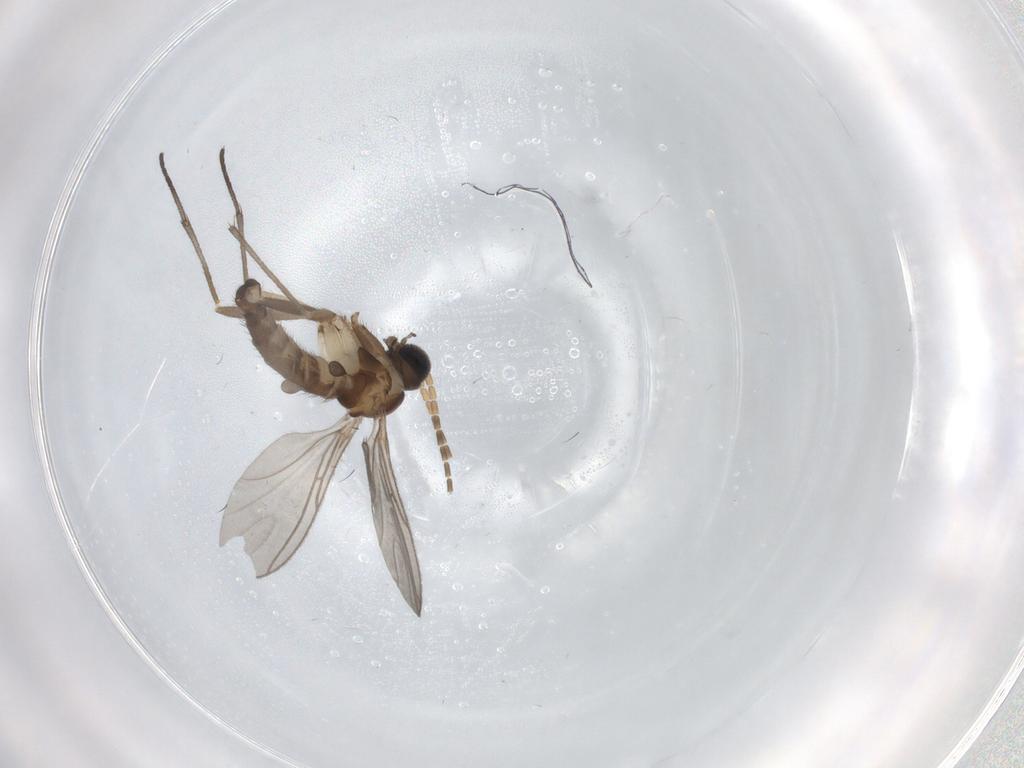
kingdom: Animalia
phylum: Arthropoda
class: Insecta
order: Diptera
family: Sciaridae
